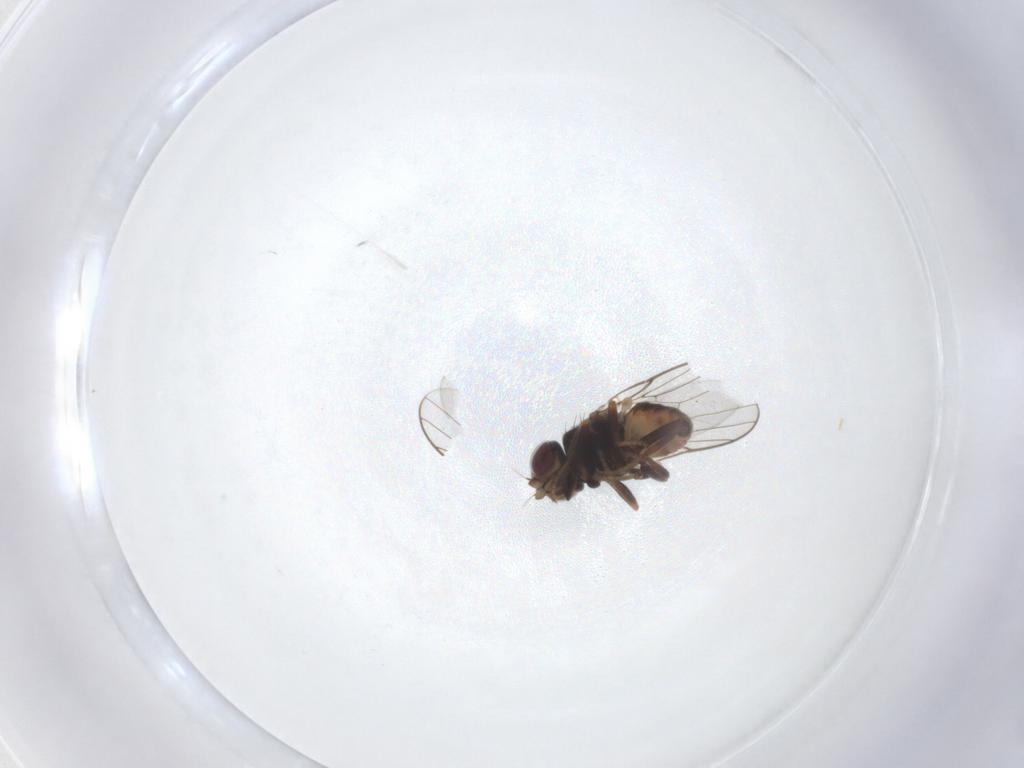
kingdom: Animalia
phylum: Arthropoda
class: Insecta
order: Diptera
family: Chloropidae
